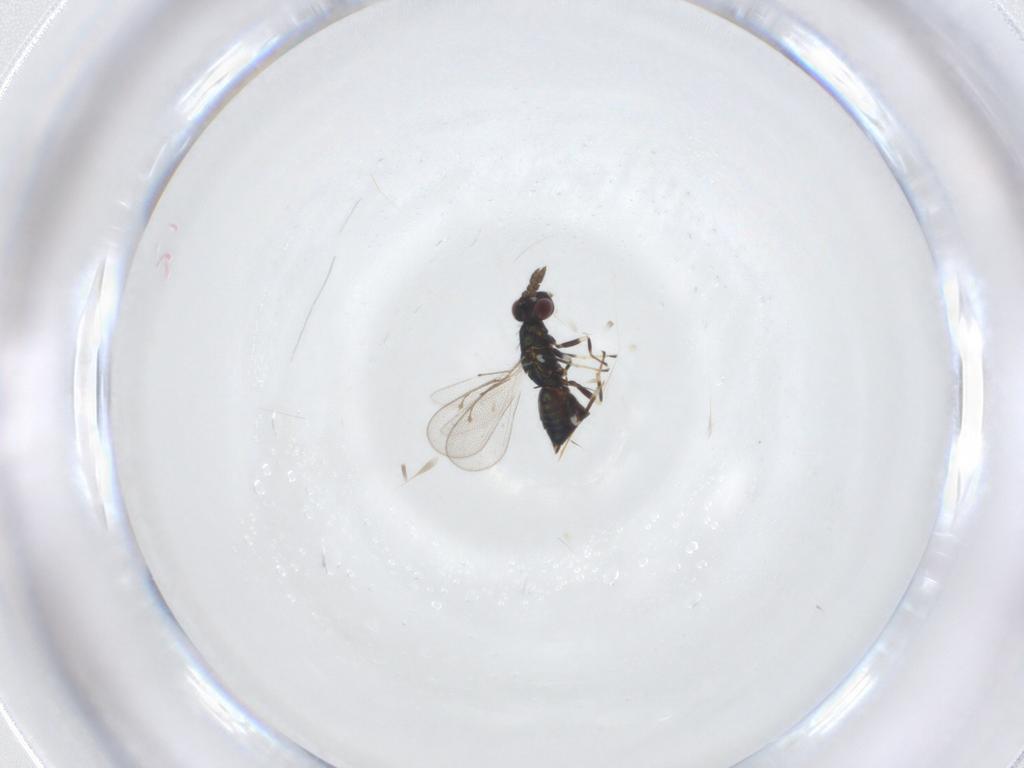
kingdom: Animalia
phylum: Arthropoda
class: Insecta
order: Hymenoptera
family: Eulophidae
